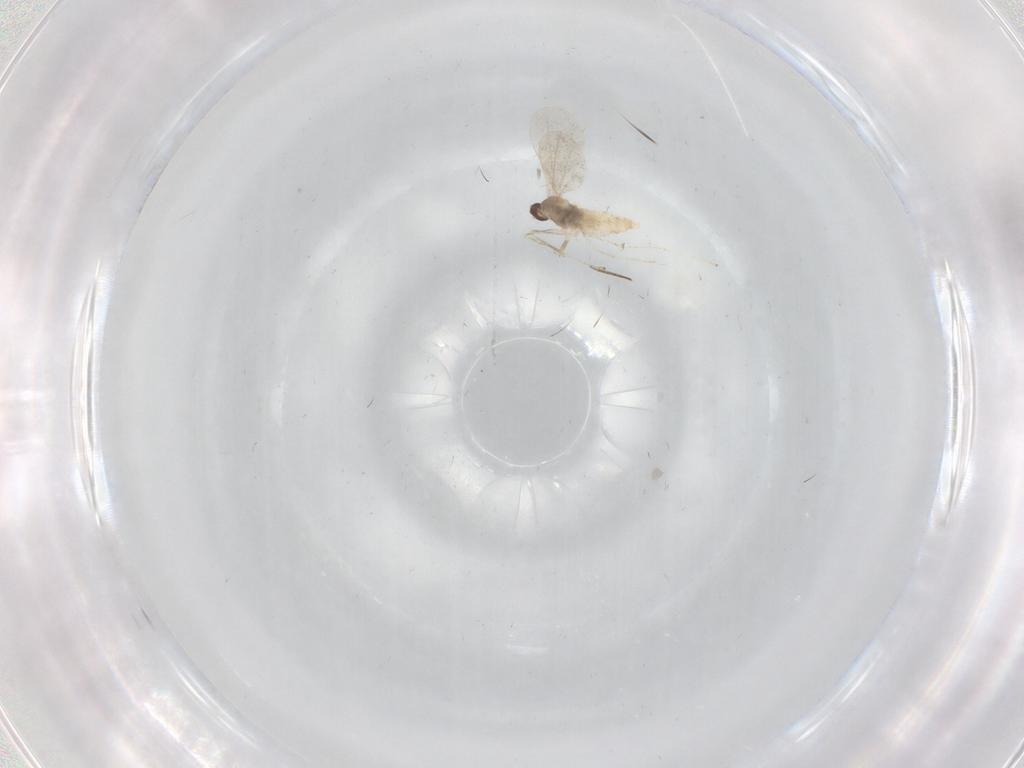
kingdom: Animalia
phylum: Arthropoda
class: Insecta
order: Diptera
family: Cecidomyiidae
